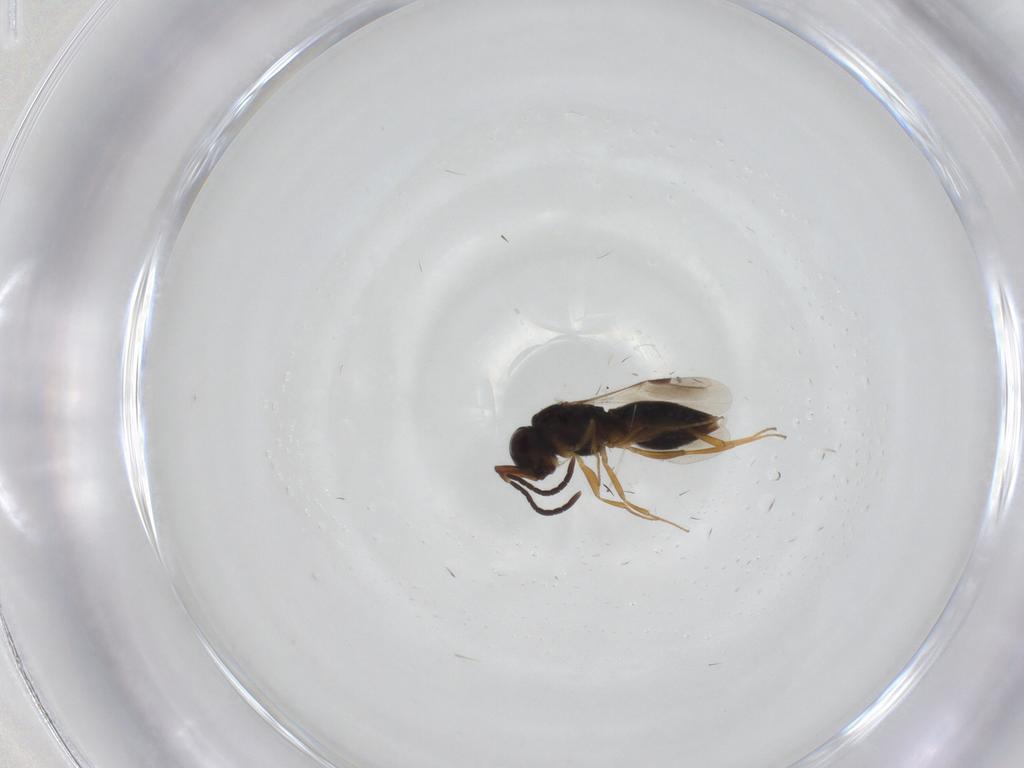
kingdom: Animalia
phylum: Arthropoda
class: Insecta
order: Hymenoptera
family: Megaspilidae
